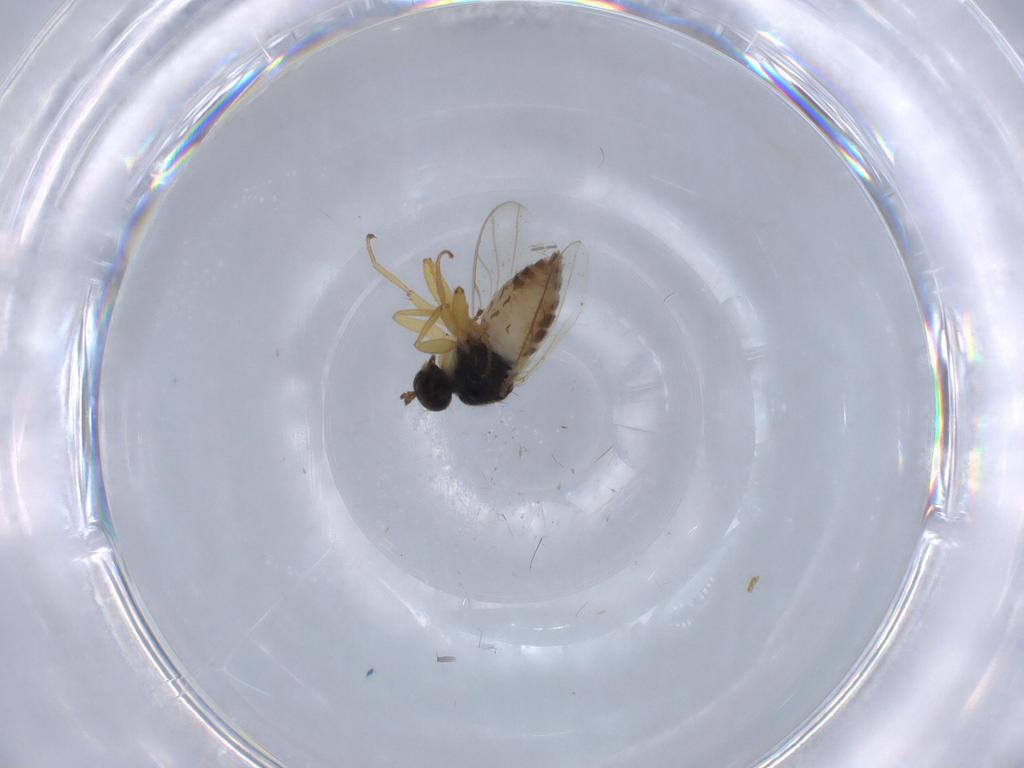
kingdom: Animalia
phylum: Arthropoda
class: Insecta
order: Diptera
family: Hybotidae
